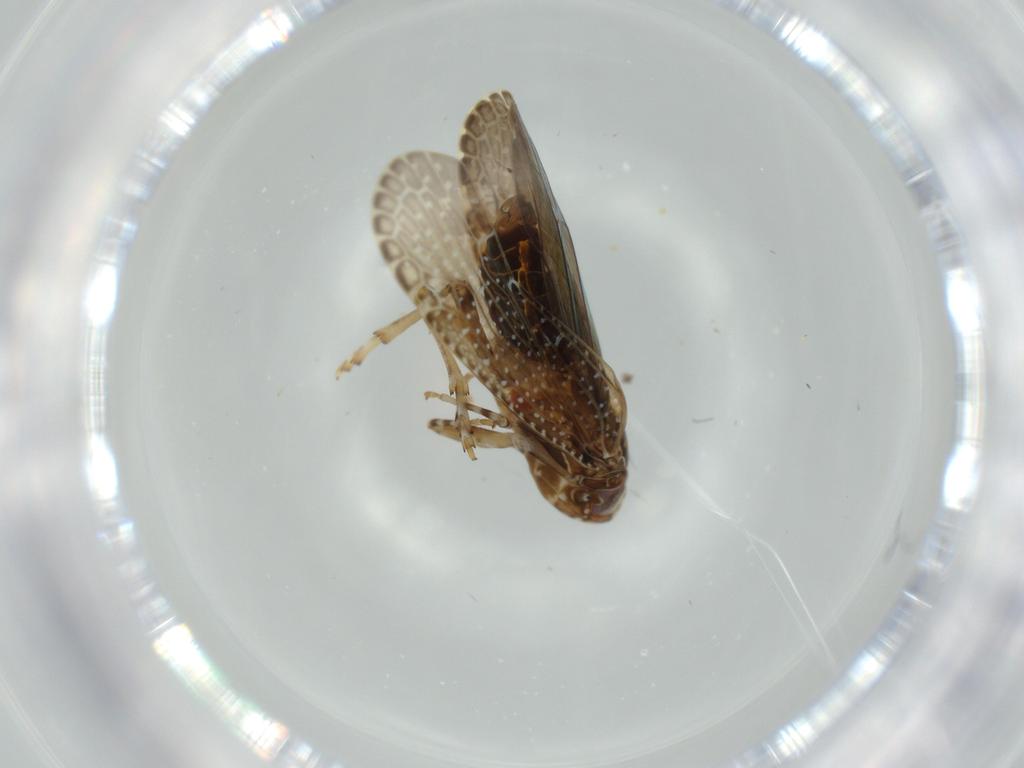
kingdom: Animalia
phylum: Arthropoda
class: Insecta
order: Hemiptera
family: Achilidae
